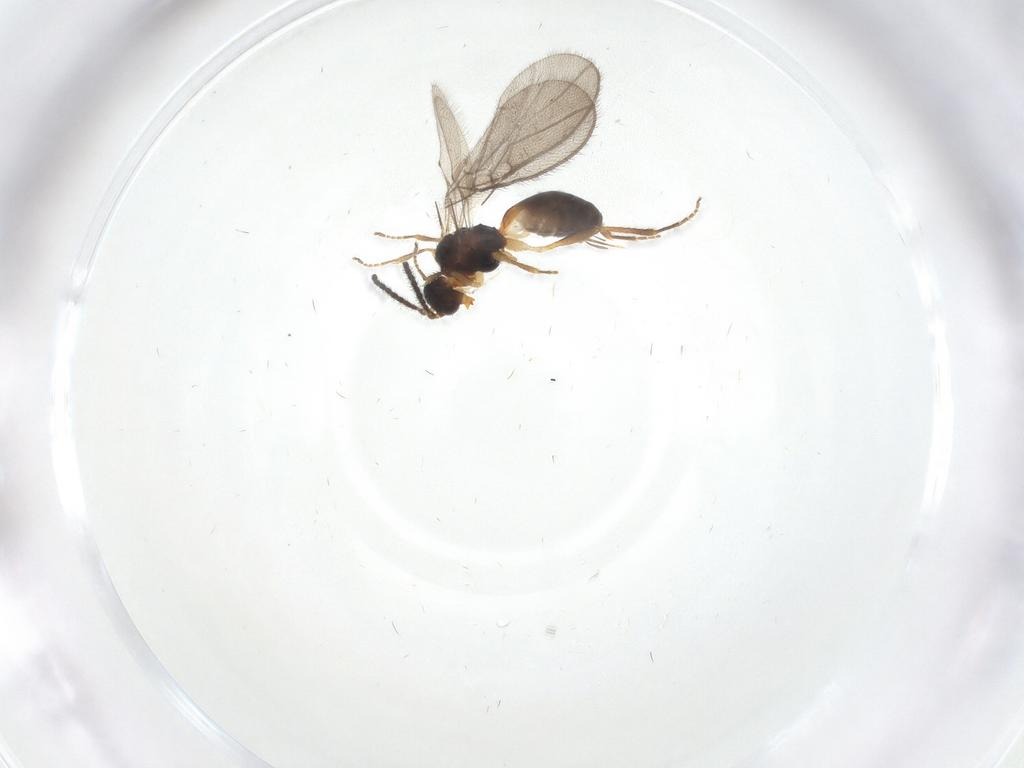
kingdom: Animalia
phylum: Arthropoda
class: Insecta
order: Hymenoptera
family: Braconidae
